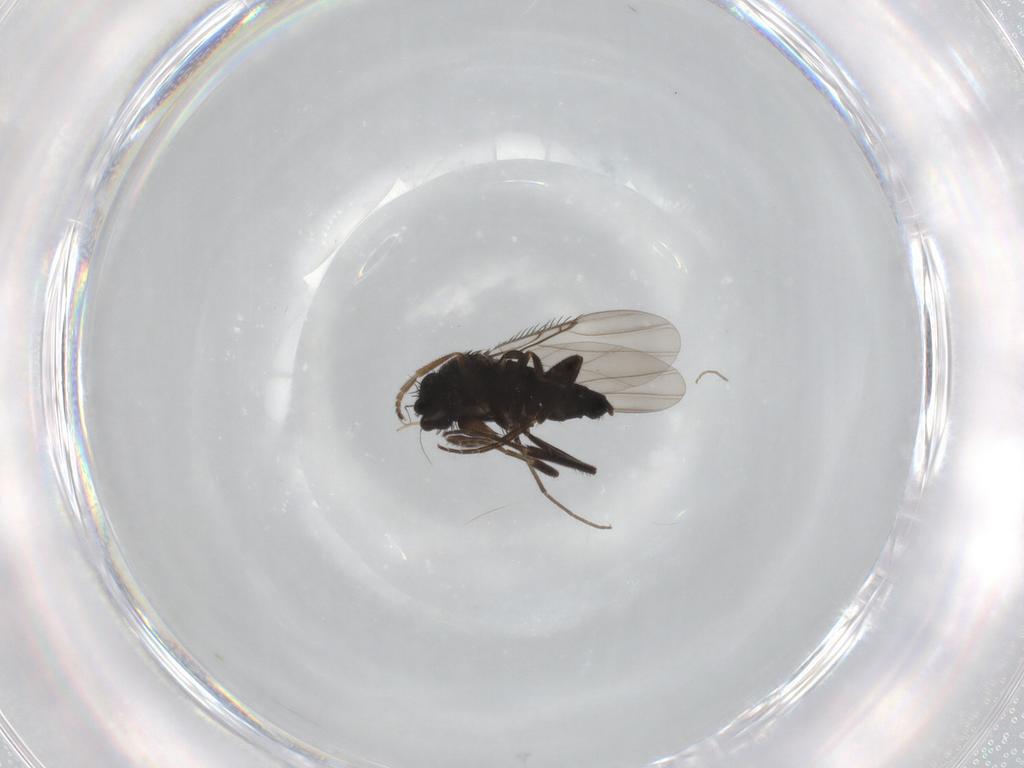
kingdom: Animalia
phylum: Arthropoda
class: Insecta
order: Diptera
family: Phoridae
